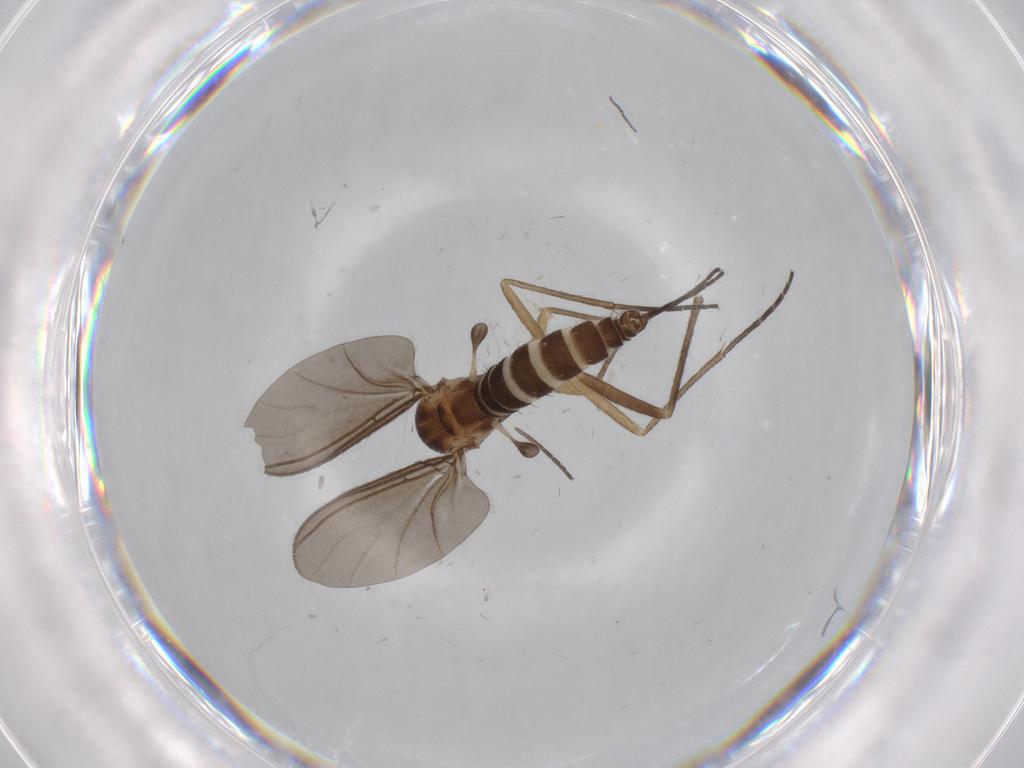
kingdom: Animalia
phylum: Arthropoda
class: Insecta
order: Diptera
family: Sciaridae
